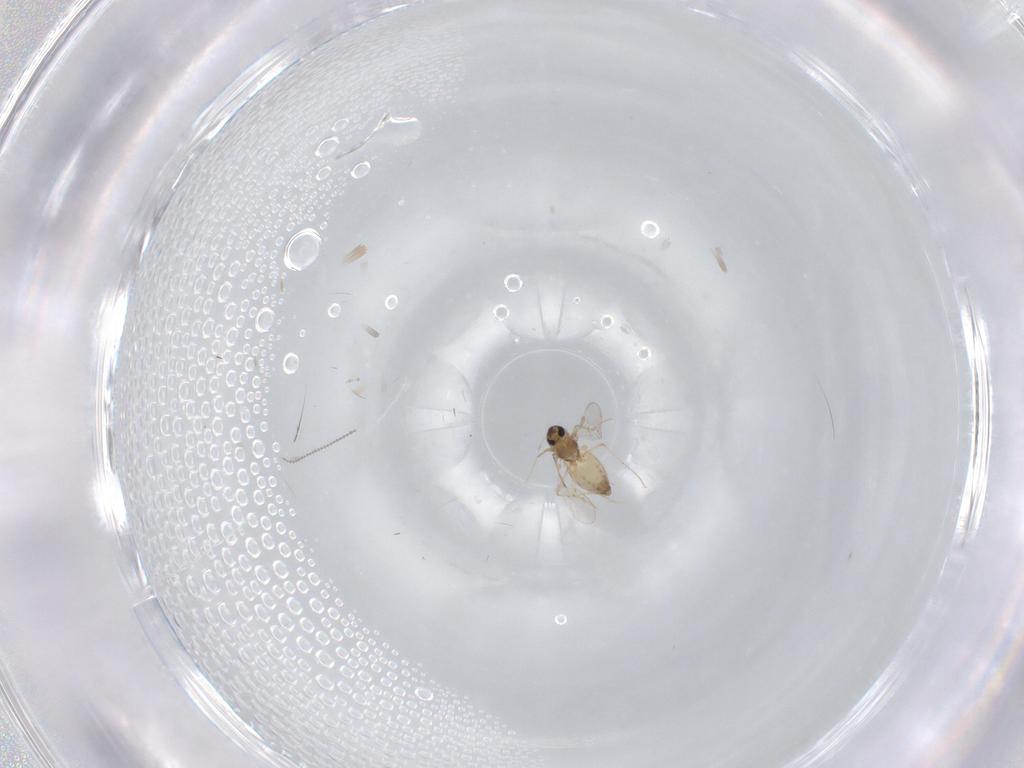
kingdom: Animalia
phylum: Arthropoda
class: Insecta
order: Diptera
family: Chironomidae
